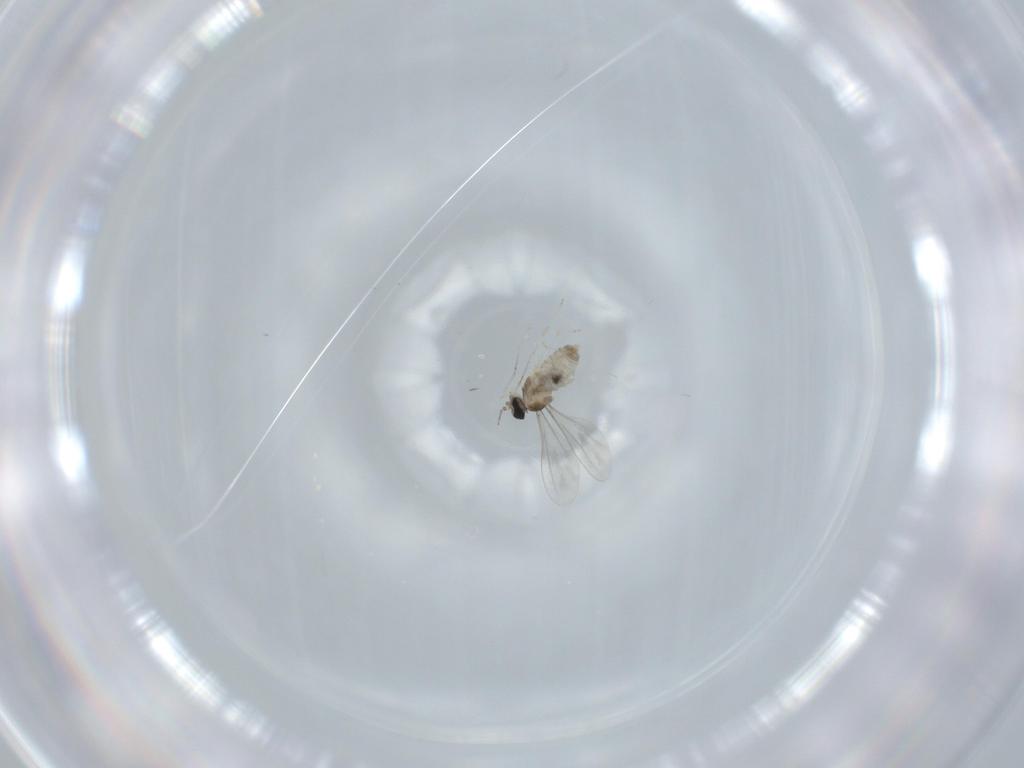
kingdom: Animalia
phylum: Arthropoda
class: Insecta
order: Diptera
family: Cecidomyiidae
